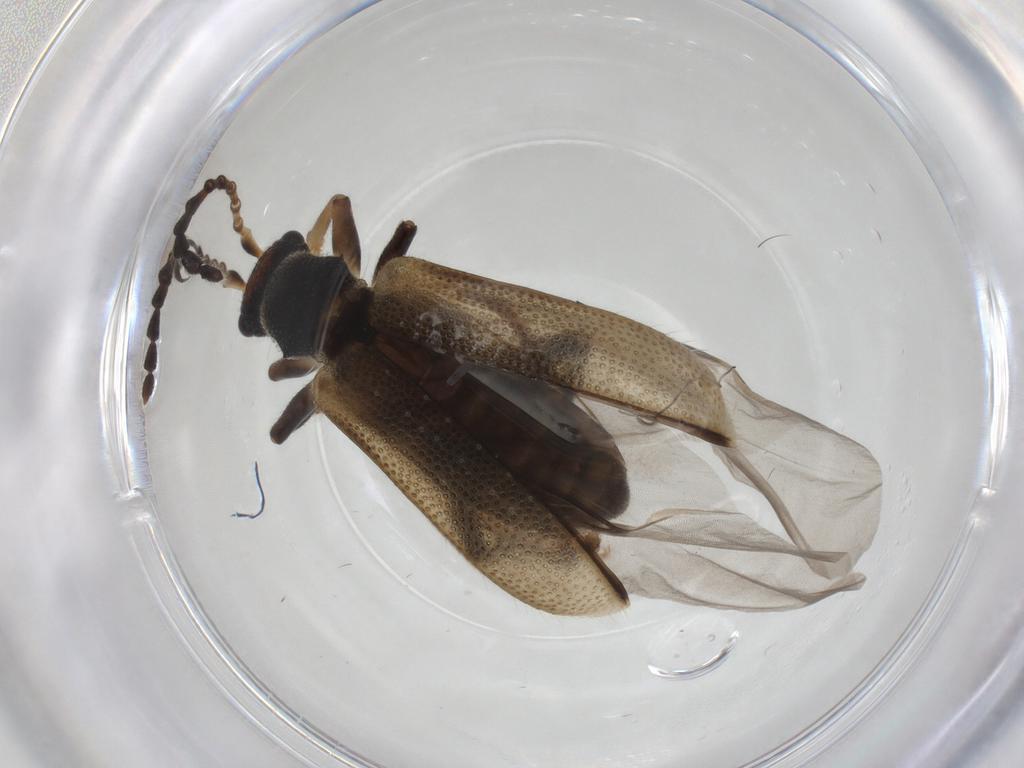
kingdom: Animalia
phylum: Arthropoda
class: Insecta
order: Coleoptera
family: Chrysomelidae
